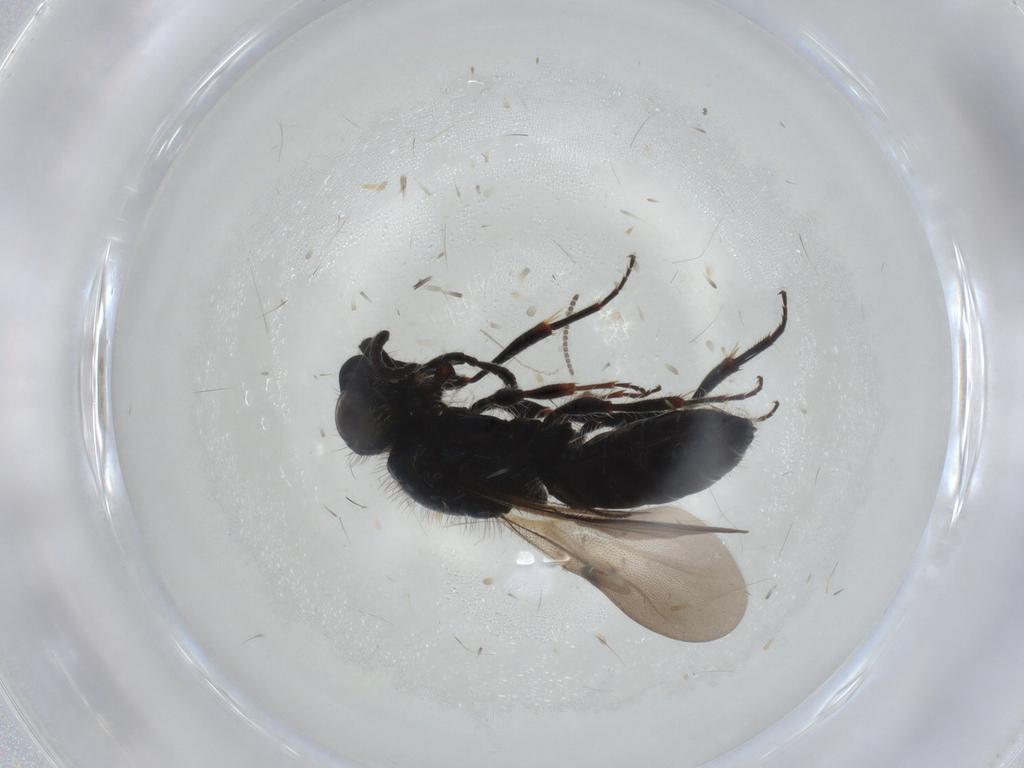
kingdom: Animalia
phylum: Arthropoda
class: Insecta
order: Hymenoptera
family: Sparasionidae
